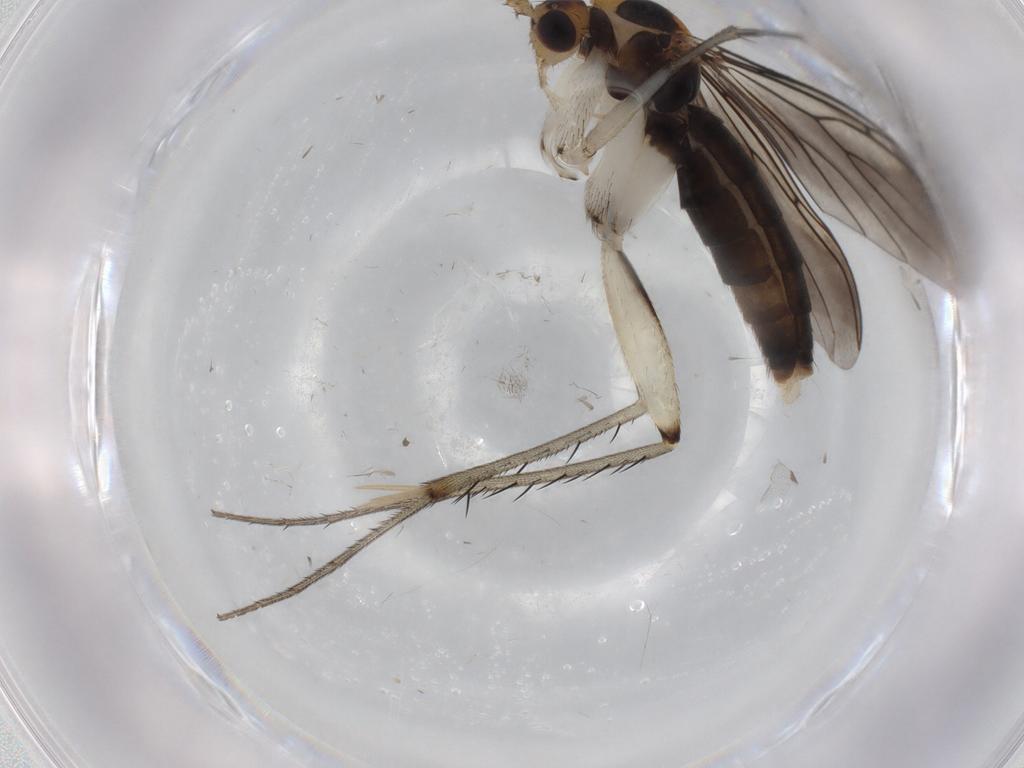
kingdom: Animalia
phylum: Arthropoda
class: Insecta
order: Diptera
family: Mycetophilidae
